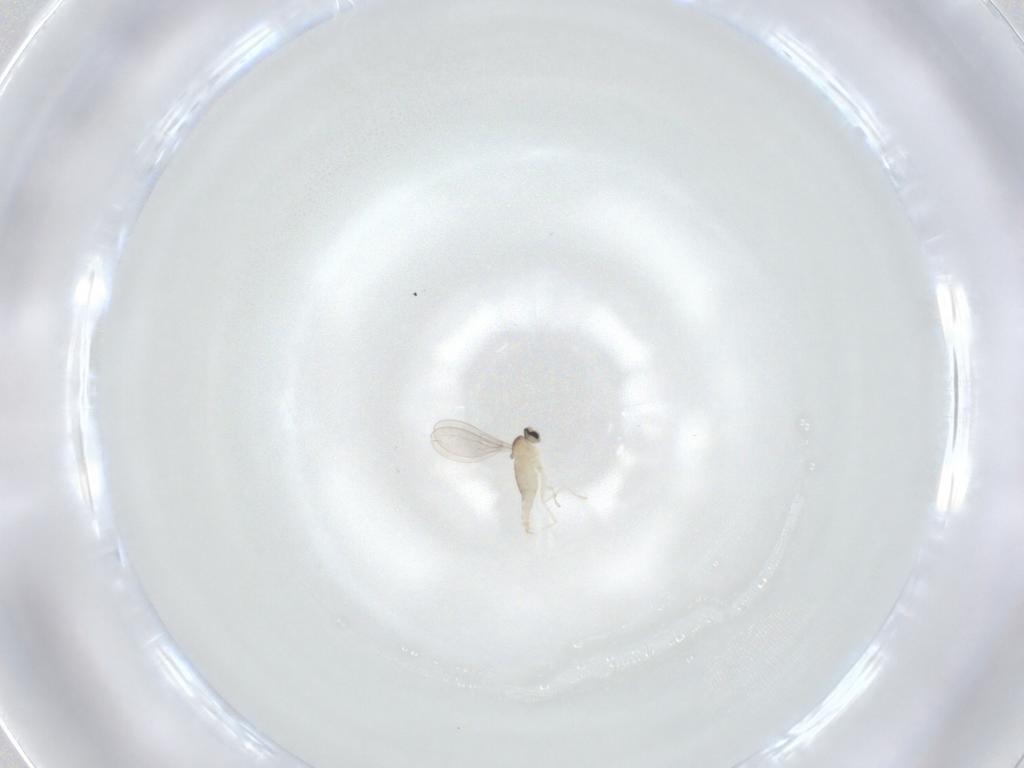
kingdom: Animalia
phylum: Arthropoda
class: Insecta
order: Diptera
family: Cecidomyiidae
